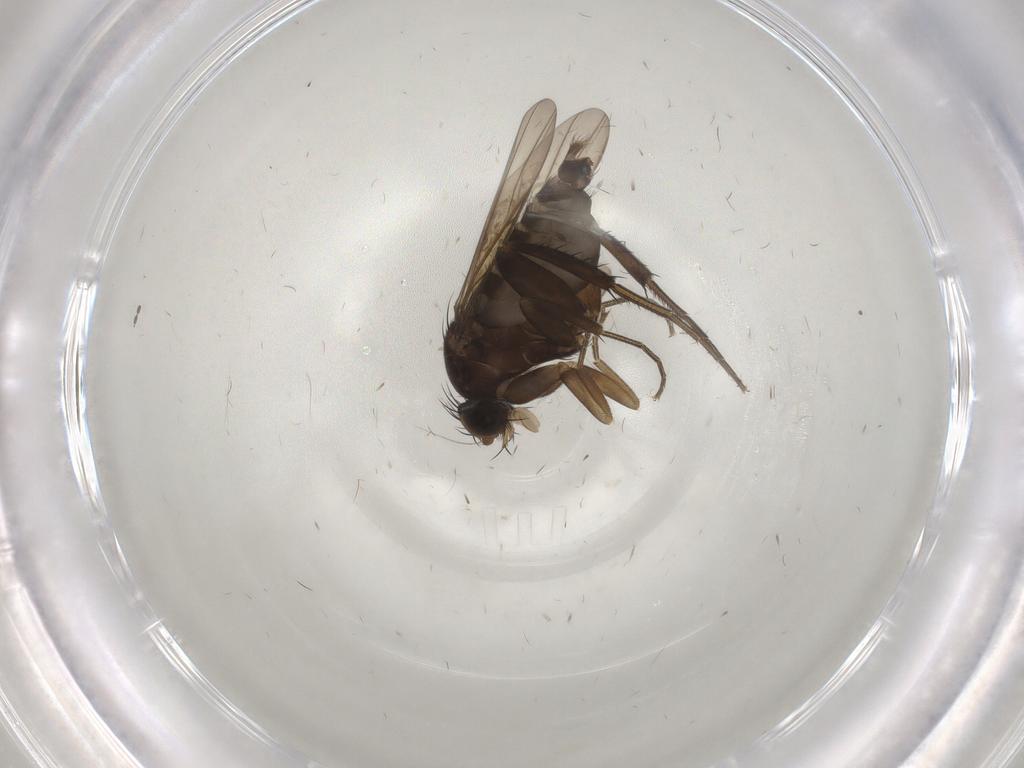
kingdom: Animalia
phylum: Arthropoda
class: Insecta
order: Diptera
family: Phoridae
